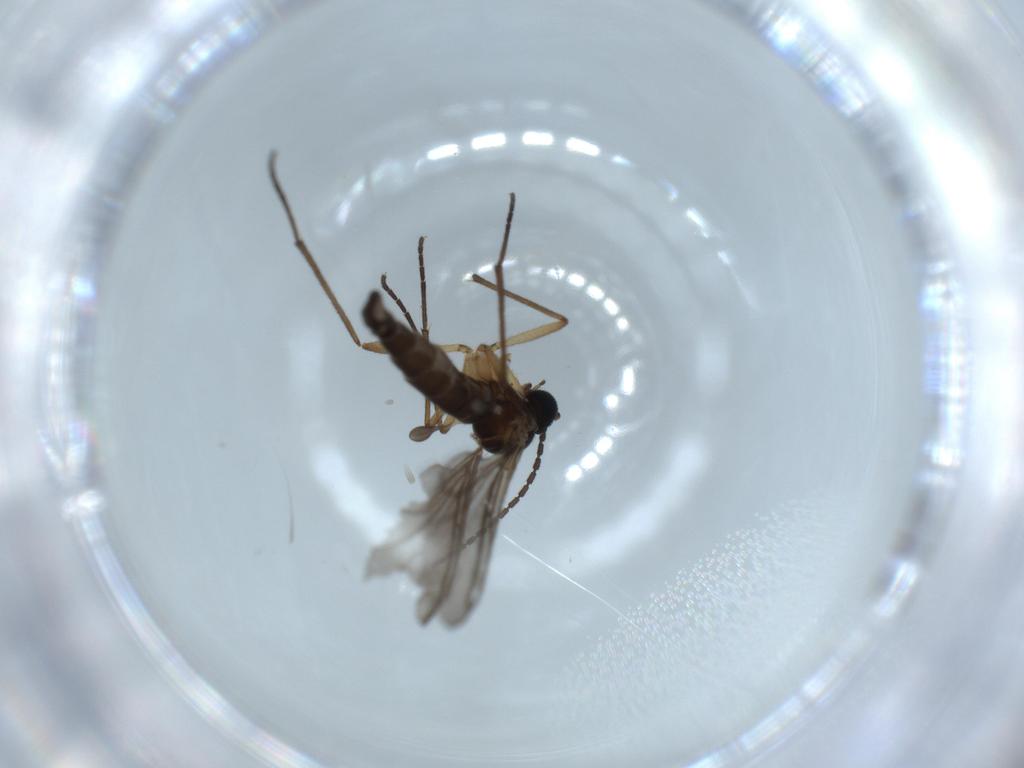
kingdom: Animalia
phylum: Arthropoda
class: Insecta
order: Diptera
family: Sciaridae
